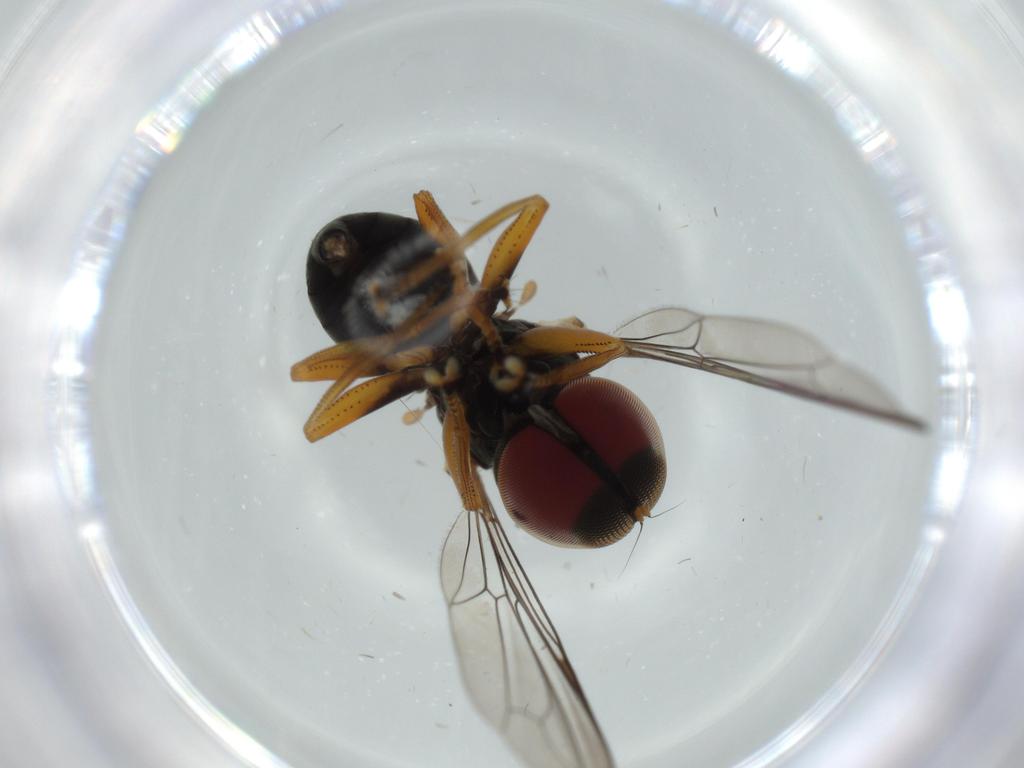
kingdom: Animalia
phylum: Arthropoda
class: Insecta
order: Diptera
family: Pipunculidae
